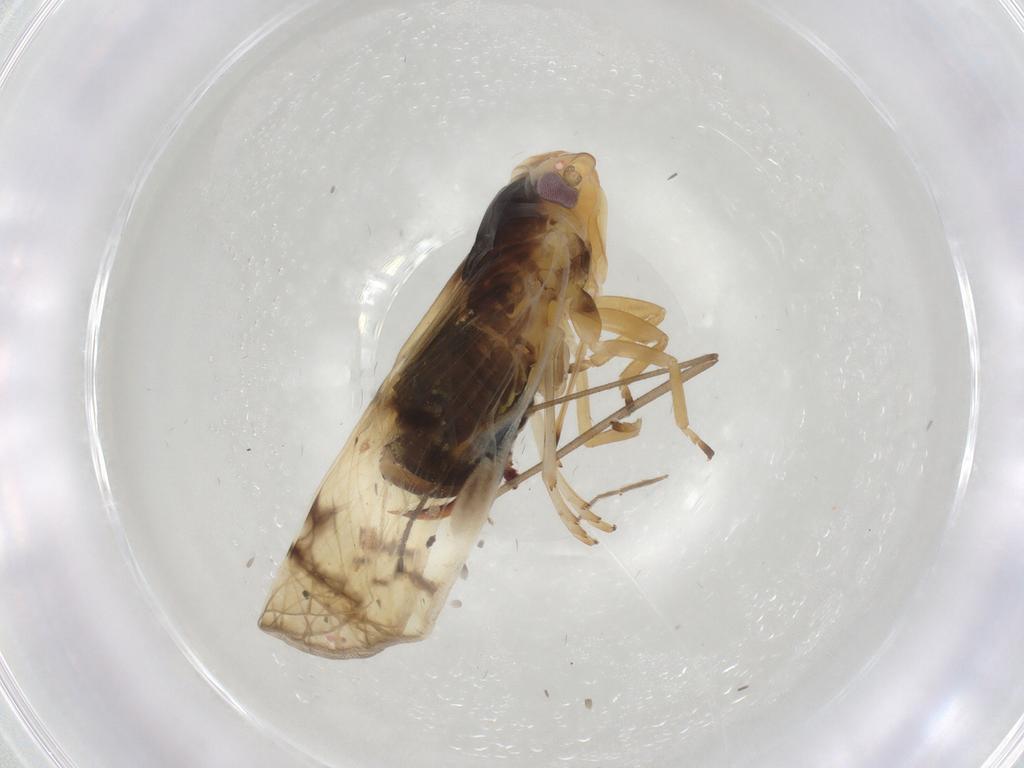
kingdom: Animalia
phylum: Arthropoda
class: Insecta
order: Hemiptera
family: Cixiidae
